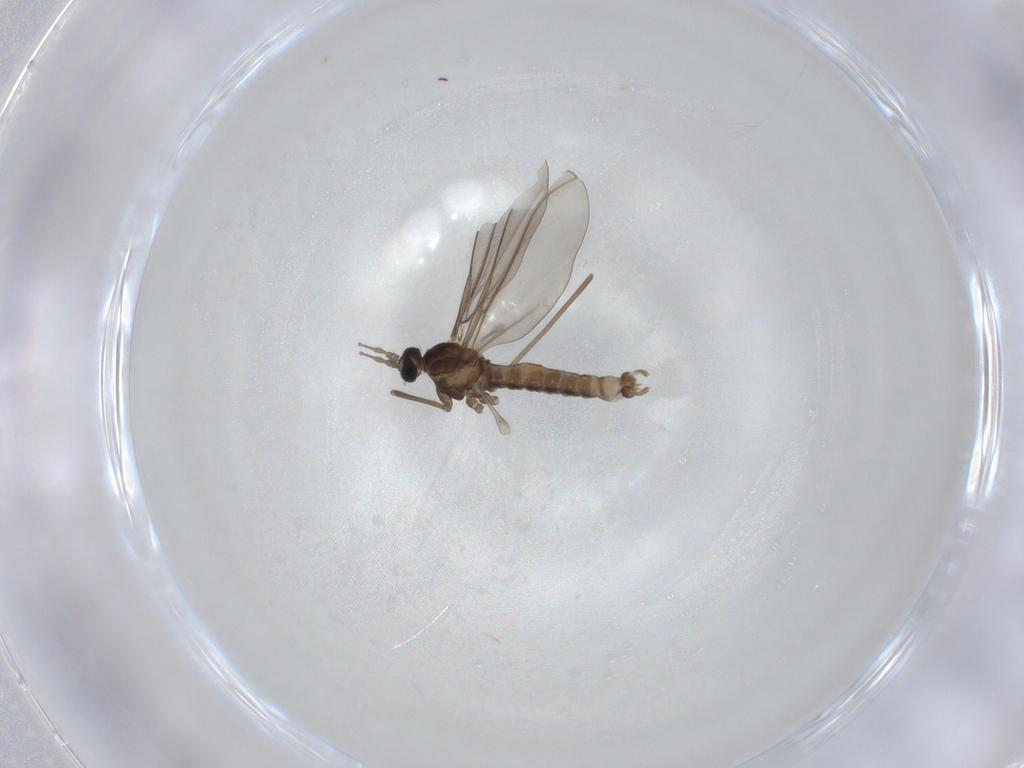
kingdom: Animalia
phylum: Arthropoda
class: Insecta
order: Diptera
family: Cecidomyiidae
